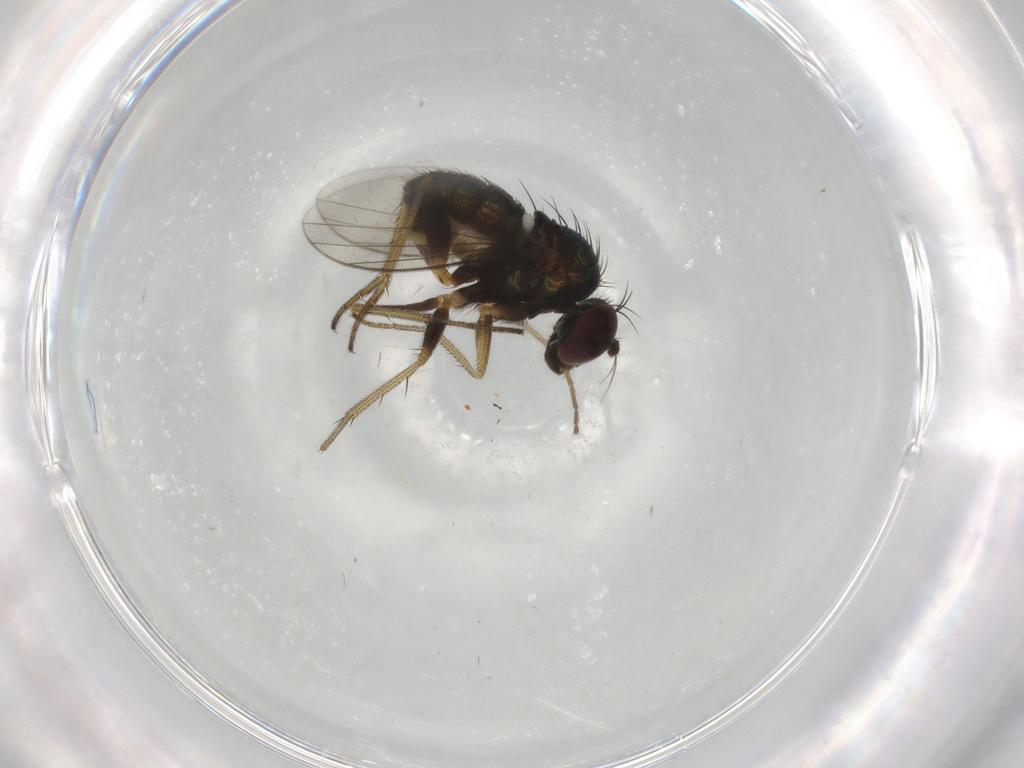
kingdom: Animalia
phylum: Arthropoda
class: Insecta
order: Diptera
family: Dolichopodidae
